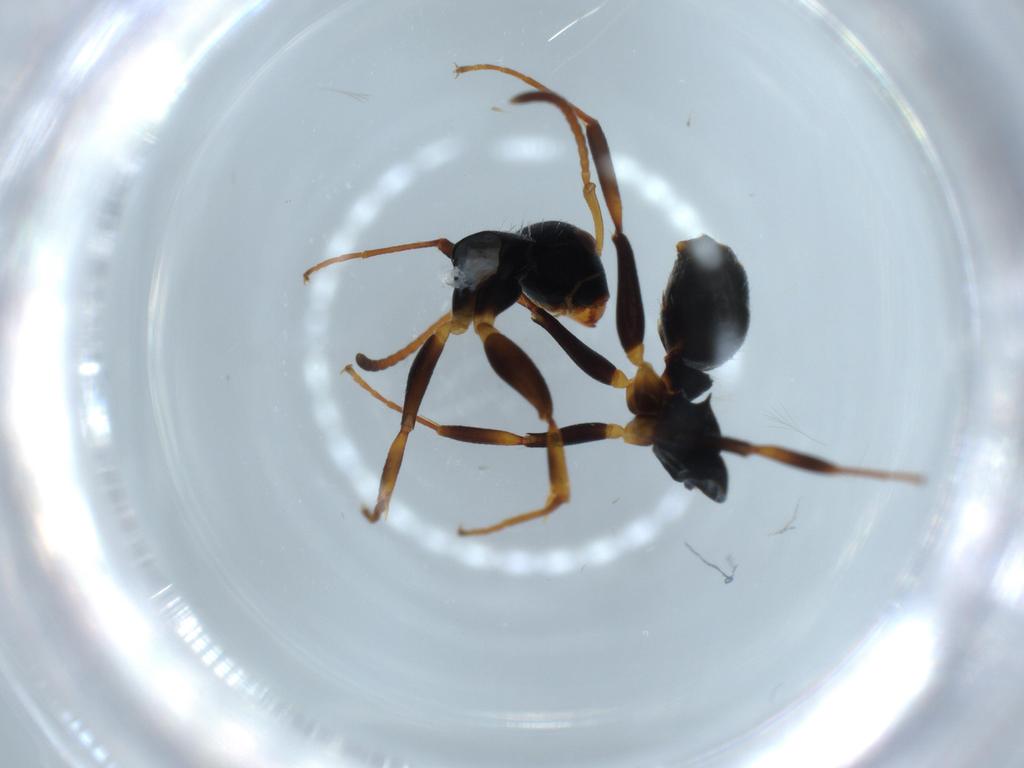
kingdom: Animalia
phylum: Arthropoda
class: Insecta
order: Hymenoptera
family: Formicidae
